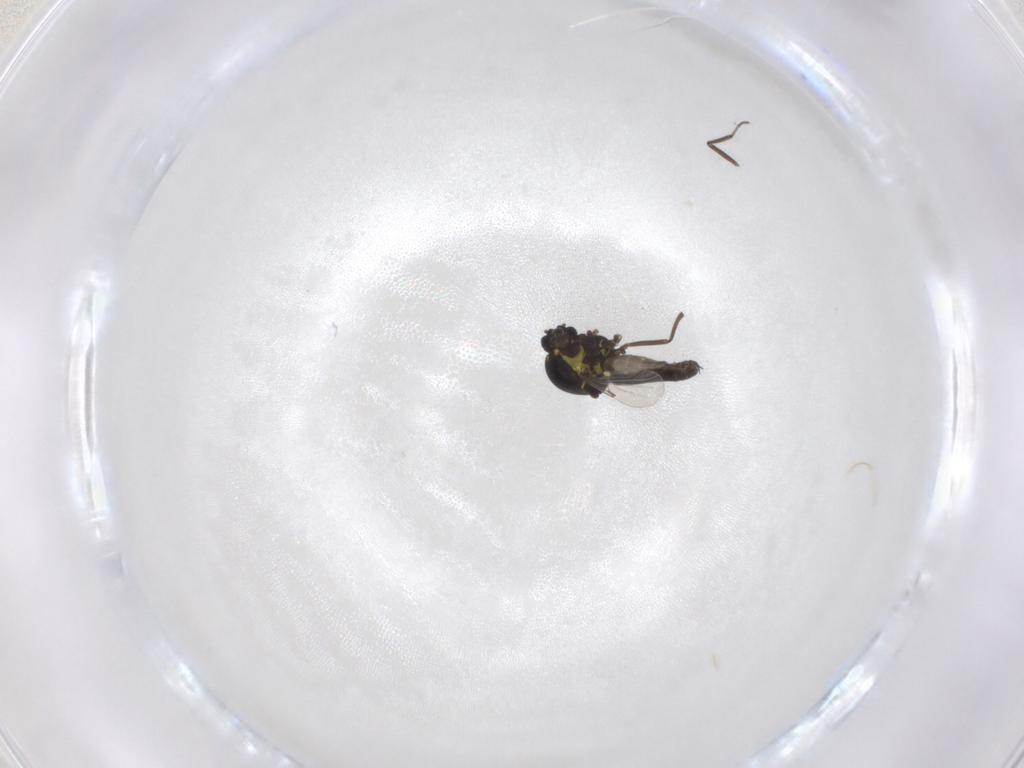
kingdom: Animalia
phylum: Arthropoda
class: Insecta
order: Diptera
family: Ceratopogonidae
